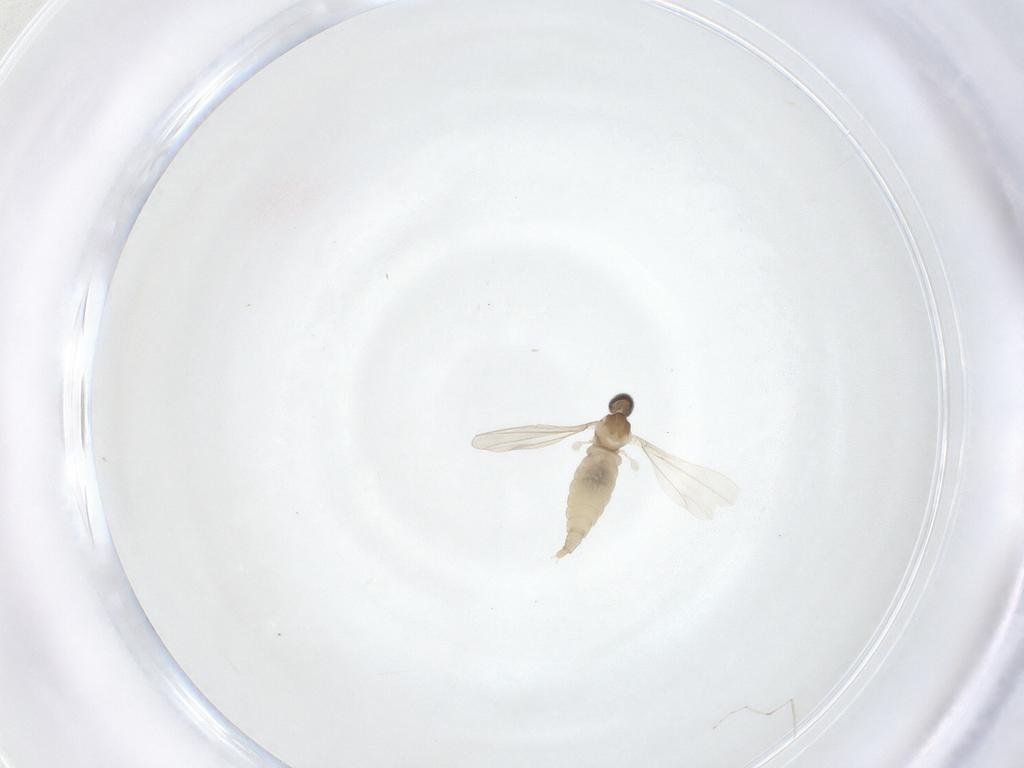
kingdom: Animalia
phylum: Arthropoda
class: Insecta
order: Diptera
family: Cecidomyiidae
